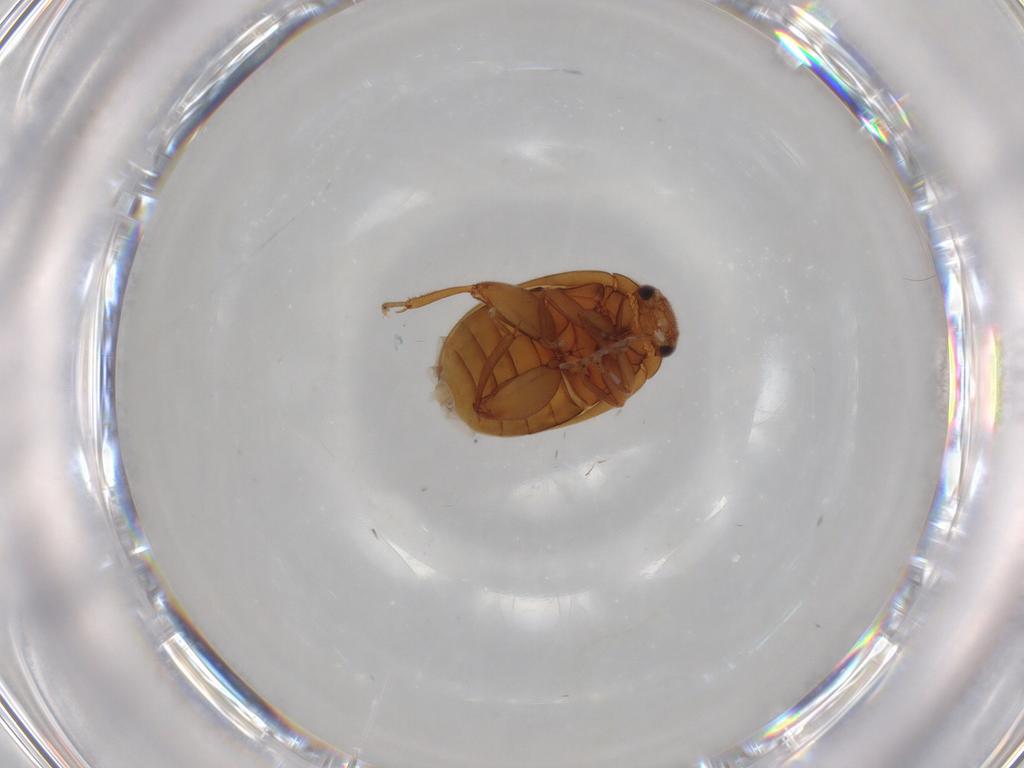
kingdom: Animalia
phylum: Arthropoda
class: Insecta
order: Coleoptera
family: Scirtidae
